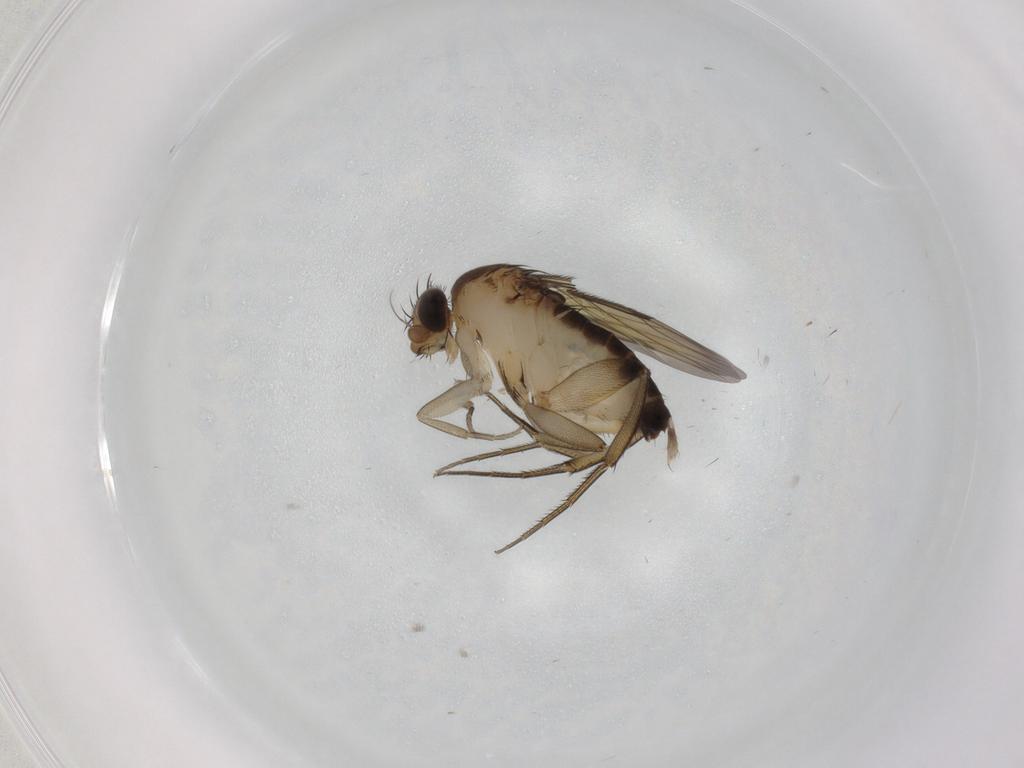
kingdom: Animalia
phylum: Arthropoda
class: Insecta
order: Diptera
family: Phoridae
